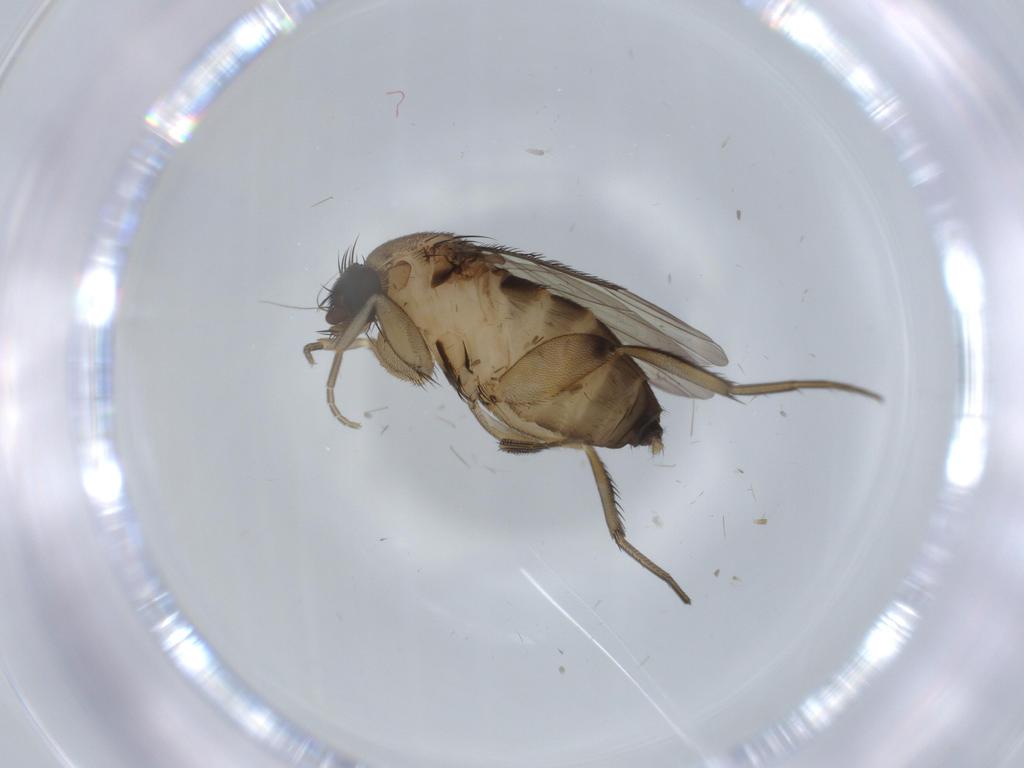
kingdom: Animalia
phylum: Arthropoda
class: Insecta
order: Diptera
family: Phoridae
